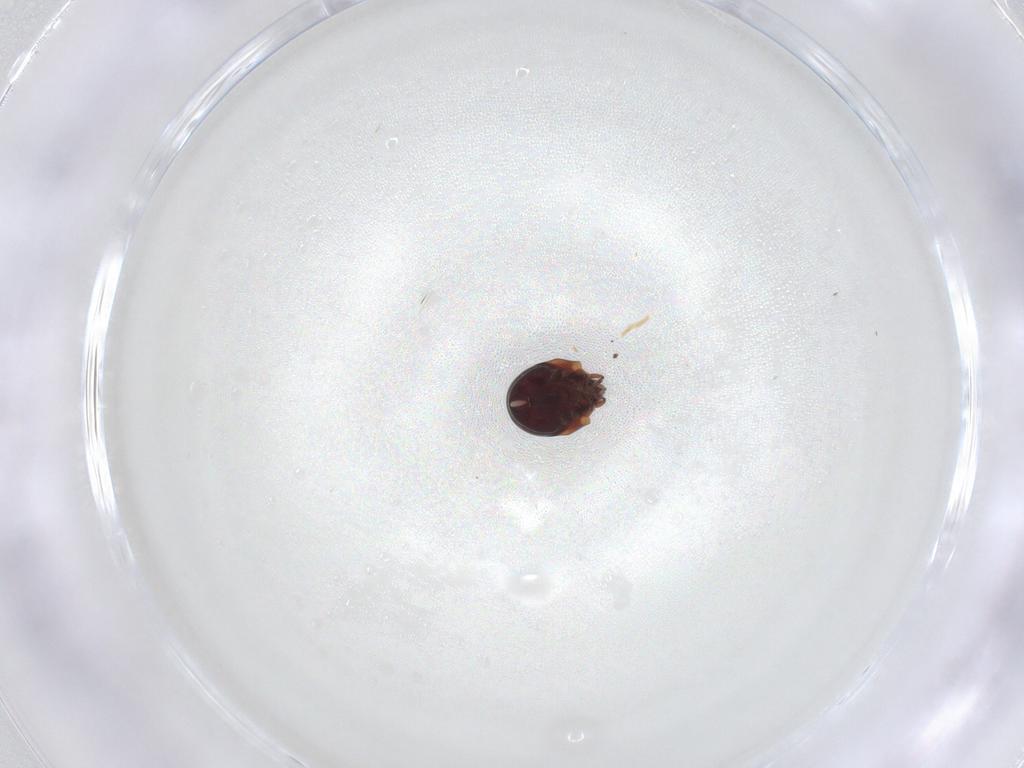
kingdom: Animalia
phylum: Arthropoda
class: Arachnida
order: Sarcoptiformes
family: Humerobatidae
